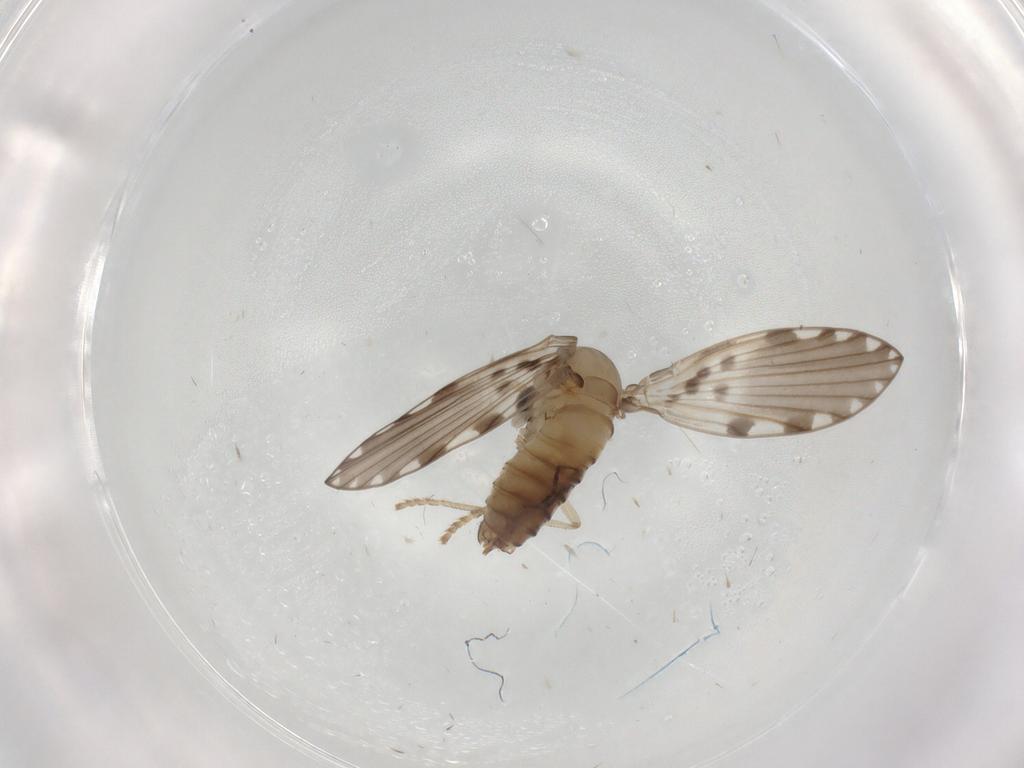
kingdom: Animalia
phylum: Arthropoda
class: Insecta
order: Diptera
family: Psychodidae
